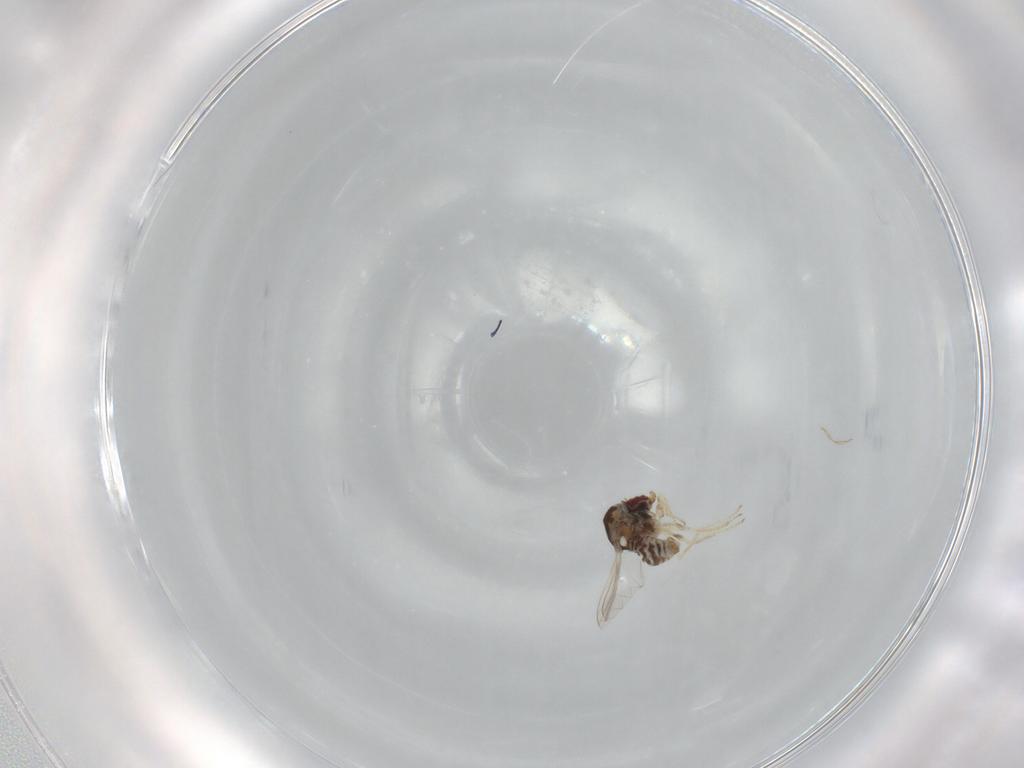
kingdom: Animalia
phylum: Arthropoda
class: Insecta
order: Diptera
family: Bombyliidae
